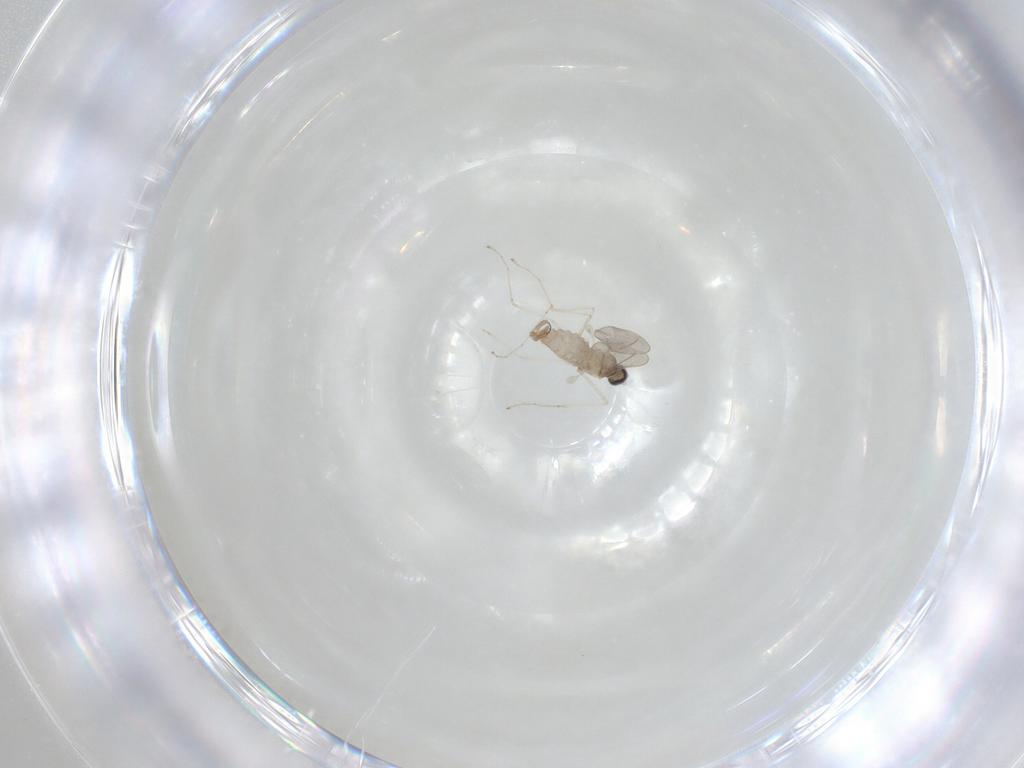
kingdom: Animalia
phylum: Arthropoda
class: Insecta
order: Diptera
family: Cecidomyiidae
